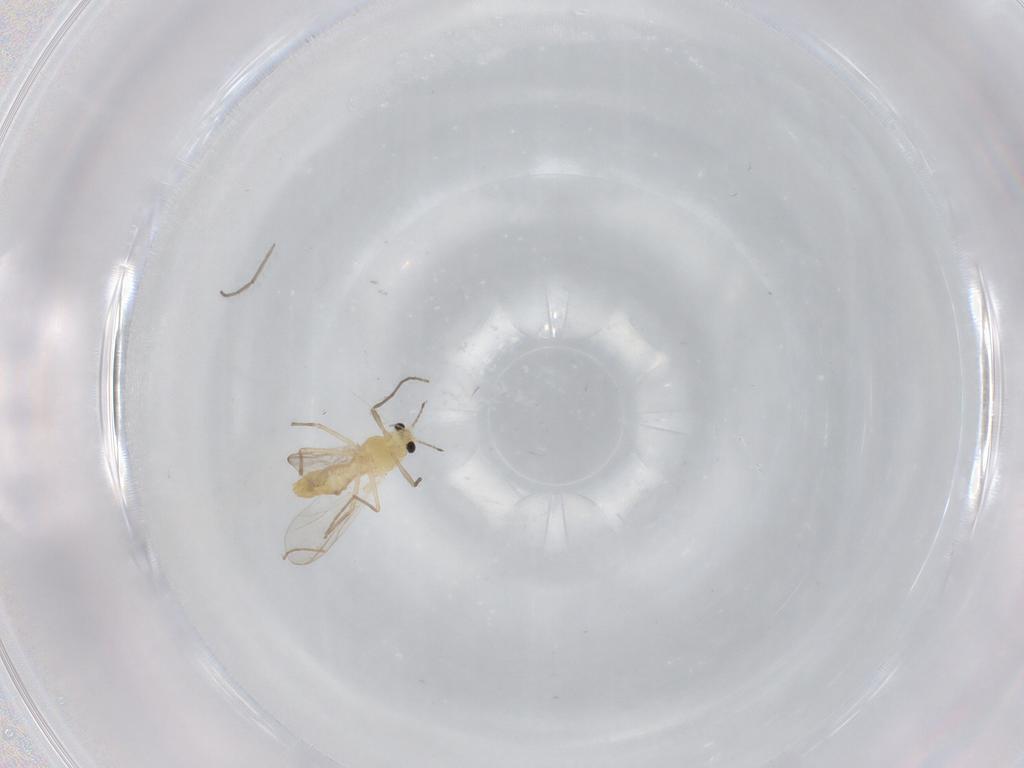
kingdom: Animalia
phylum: Arthropoda
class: Insecta
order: Diptera
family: Chironomidae
